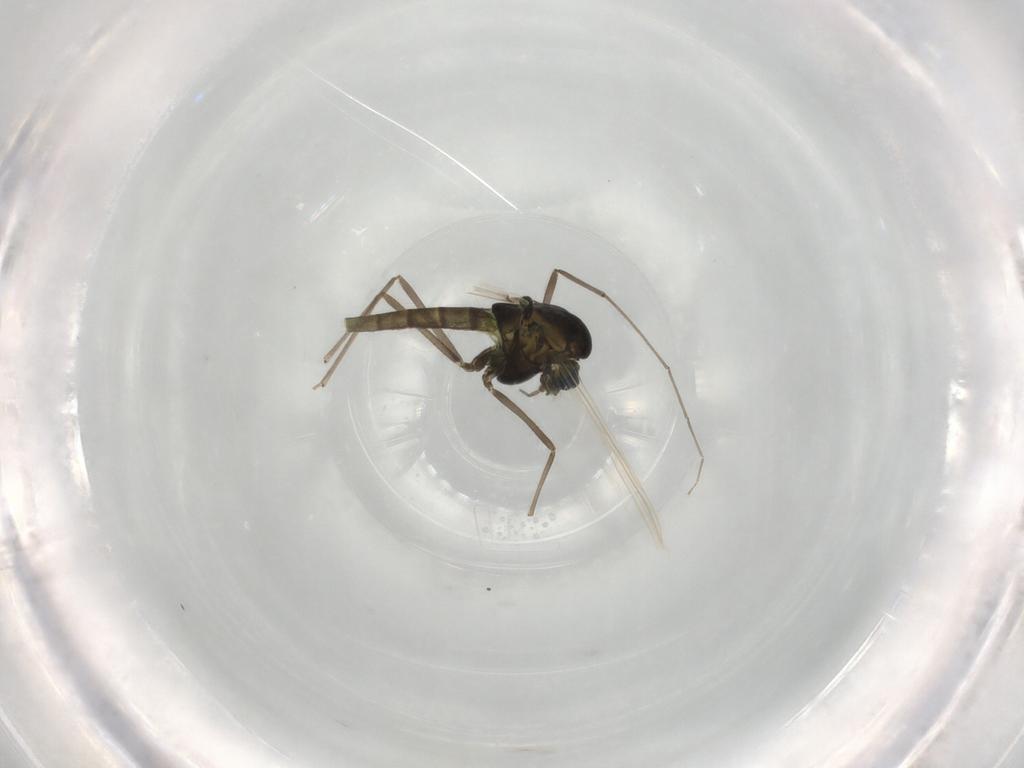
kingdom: Animalia
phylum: Arthropoda
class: Insecta
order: Diptera
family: Chironomidae
